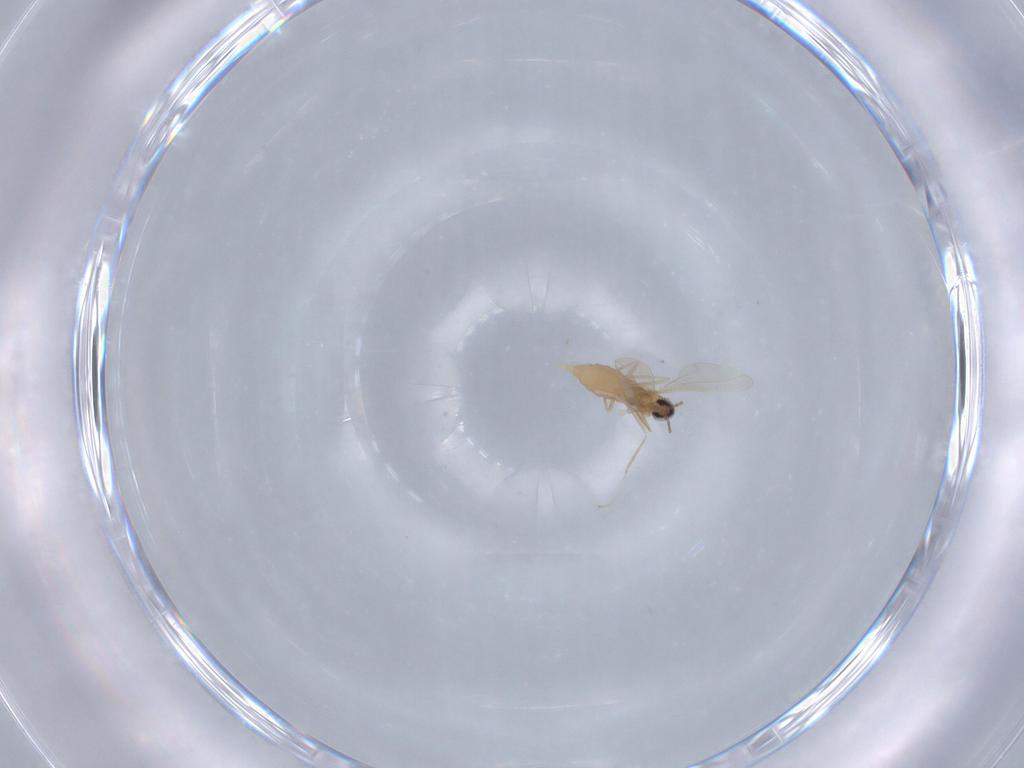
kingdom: Animalia
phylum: Arthropoda
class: Insecta
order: Diptera
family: Cecidomyiidae
